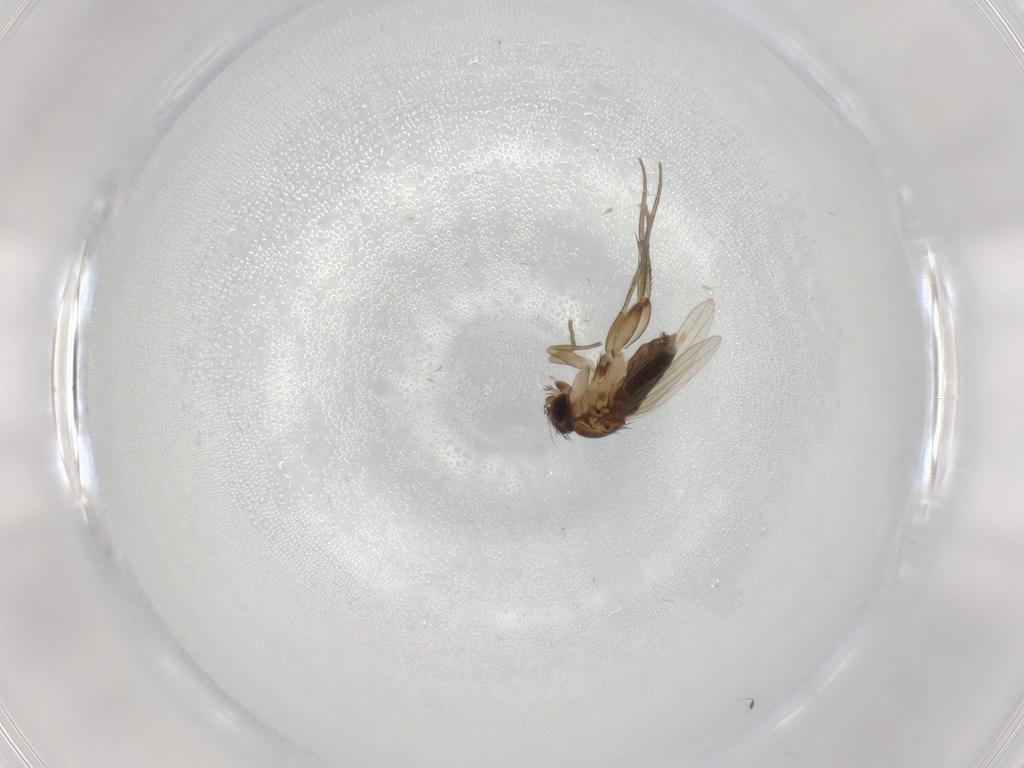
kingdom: Animalia
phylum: Arthropoda
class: Insecta
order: Diptera
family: Phoridae
